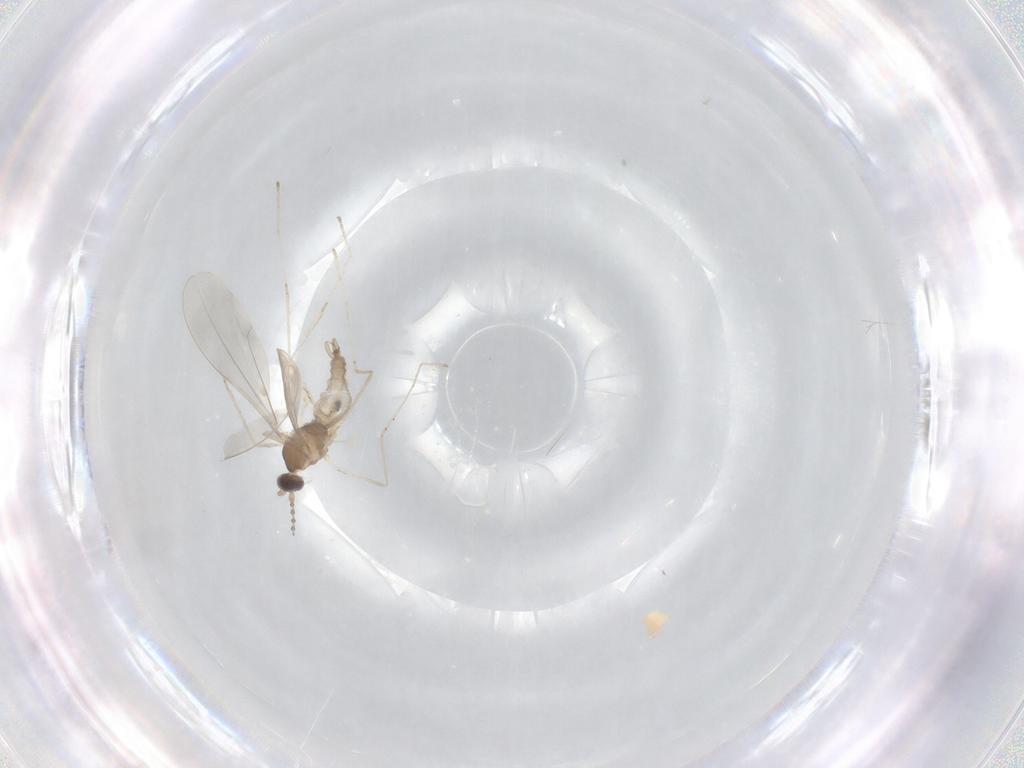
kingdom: Animalia
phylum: Arthropoda
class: Insecta
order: Diptera
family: Cecidomyiidae
